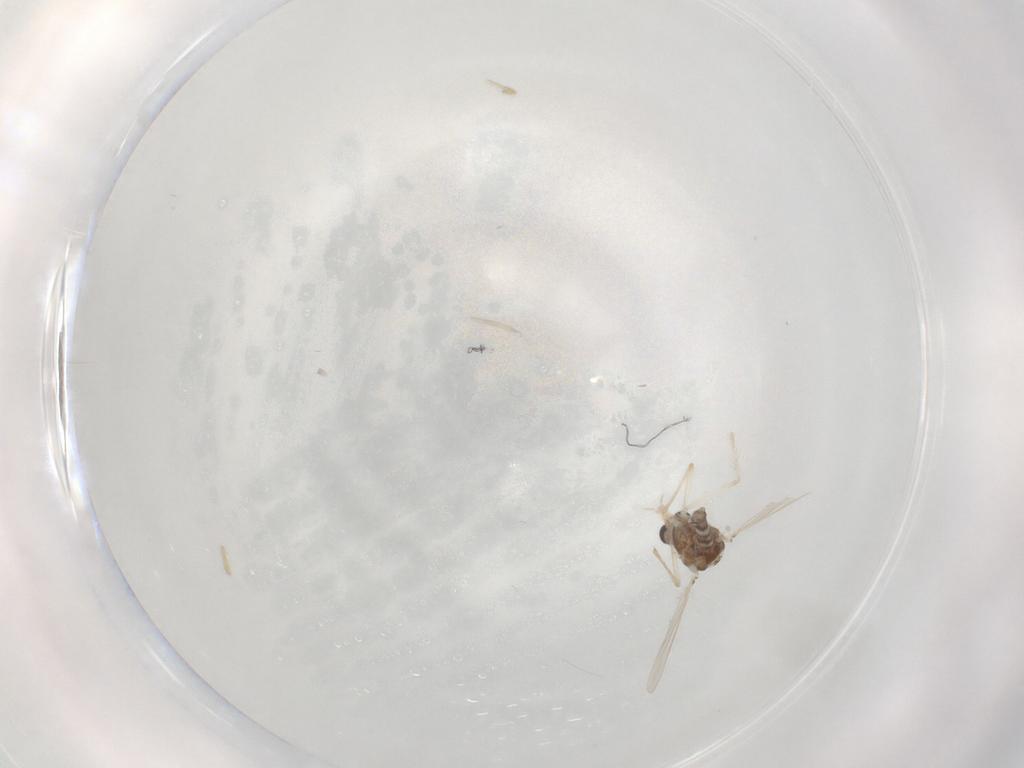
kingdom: Animalia
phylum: Arthropoda
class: Insecta
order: Diptera
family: Chironomidae
